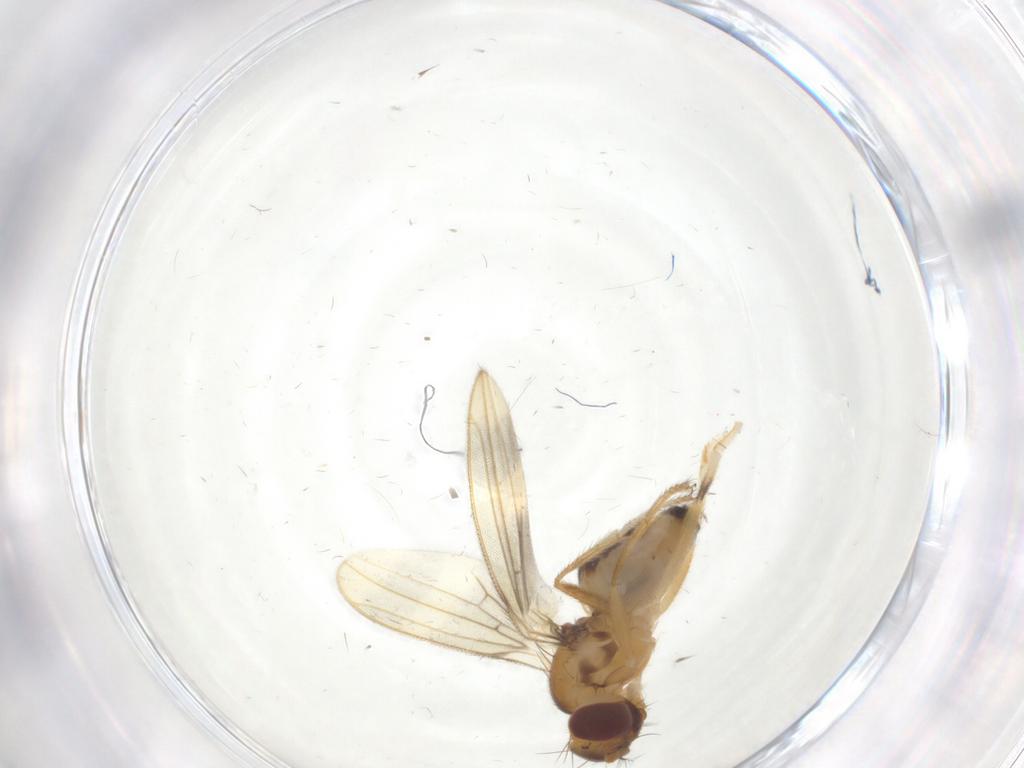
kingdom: Animalia
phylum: Arthropoda
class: Insecta
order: Diptera
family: Periscelididae
